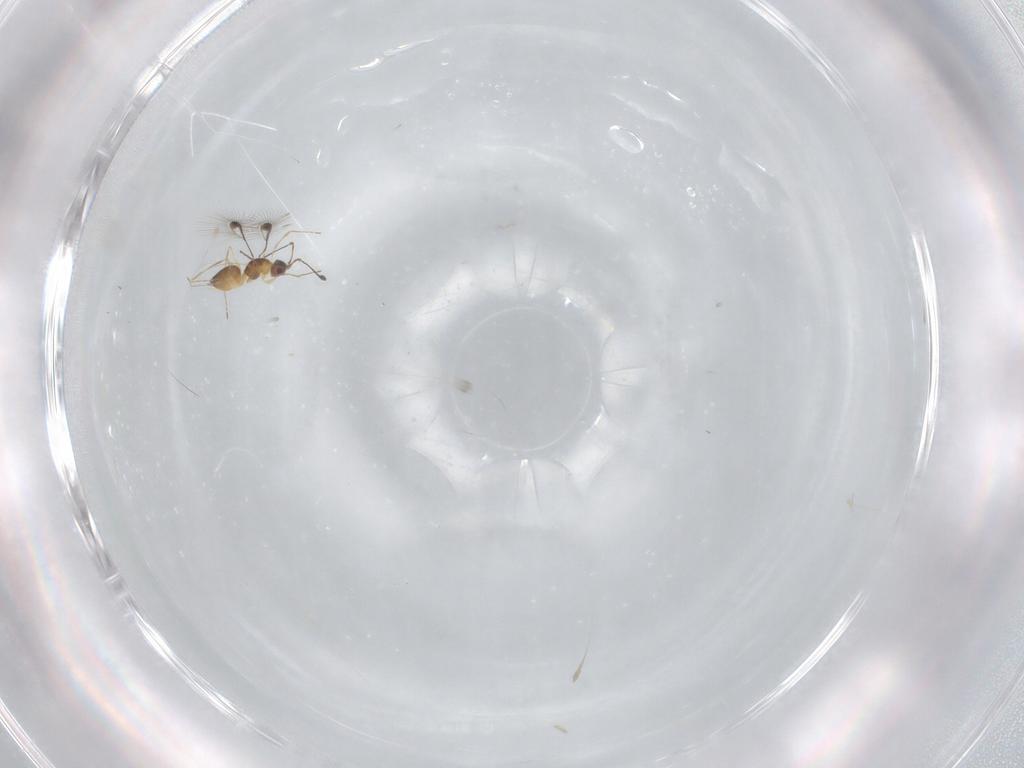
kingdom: Animalia
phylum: Arthropoda
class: Insecta
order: Hymenoptera
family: Mymaridae
